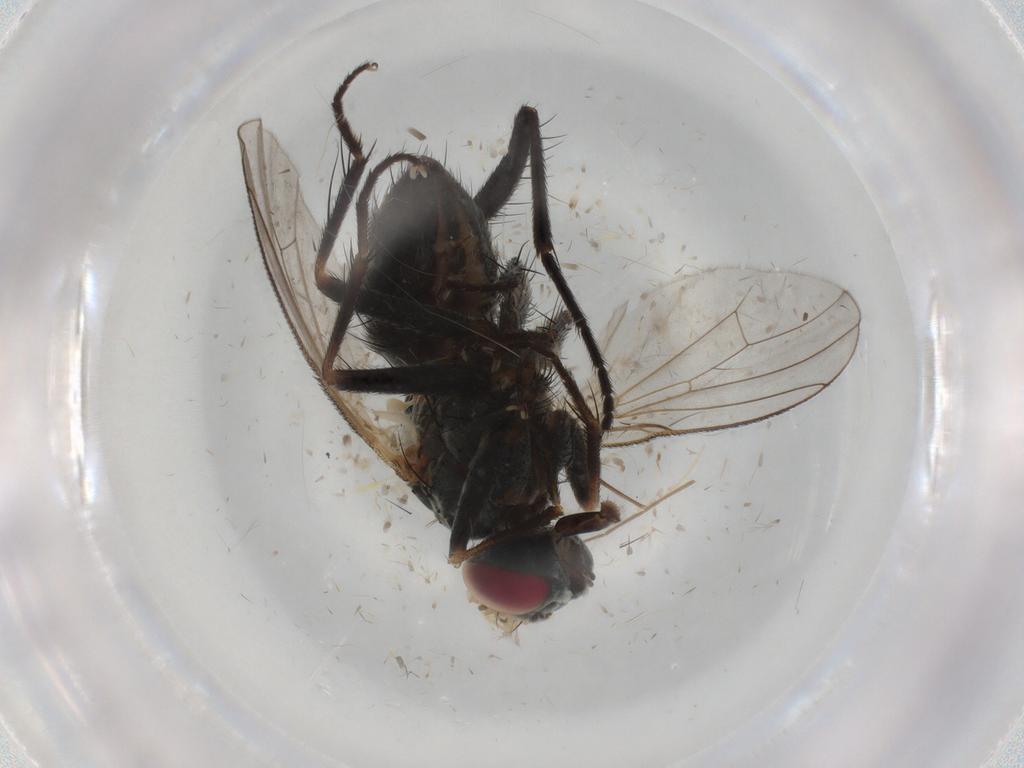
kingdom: Animalia
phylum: Arthropoda
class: Insecta
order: Diptera
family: Muscidae
